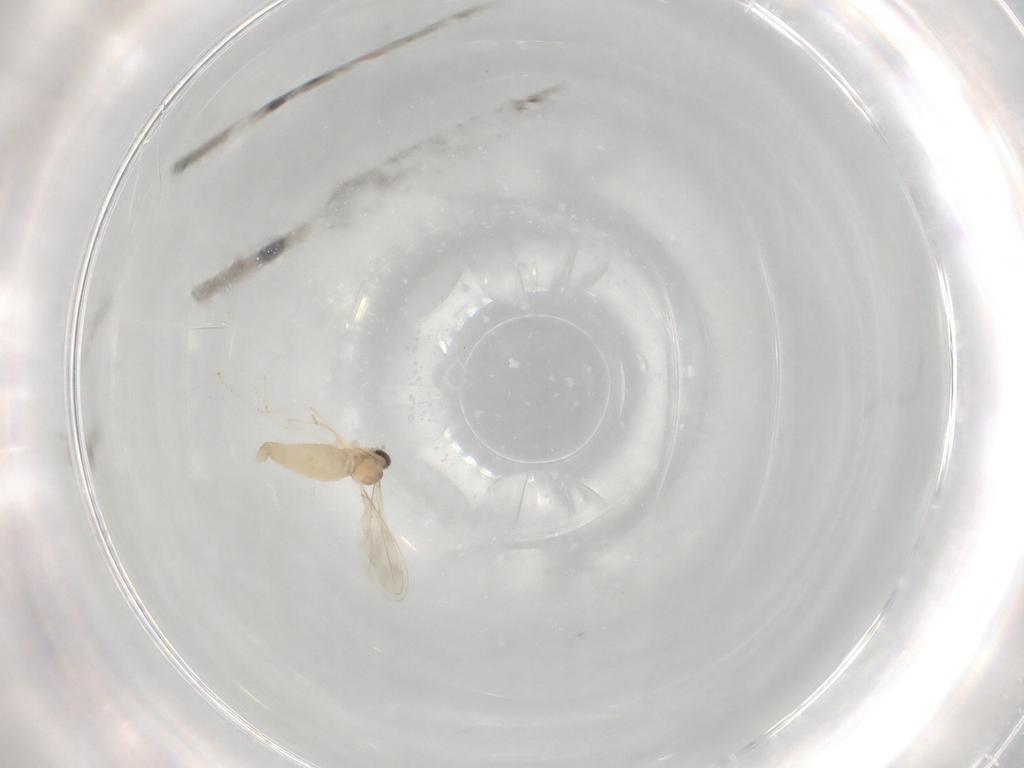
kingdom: Animalia
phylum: Arthropoda
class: Insecta
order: Diptera
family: Cecidomyiidae
